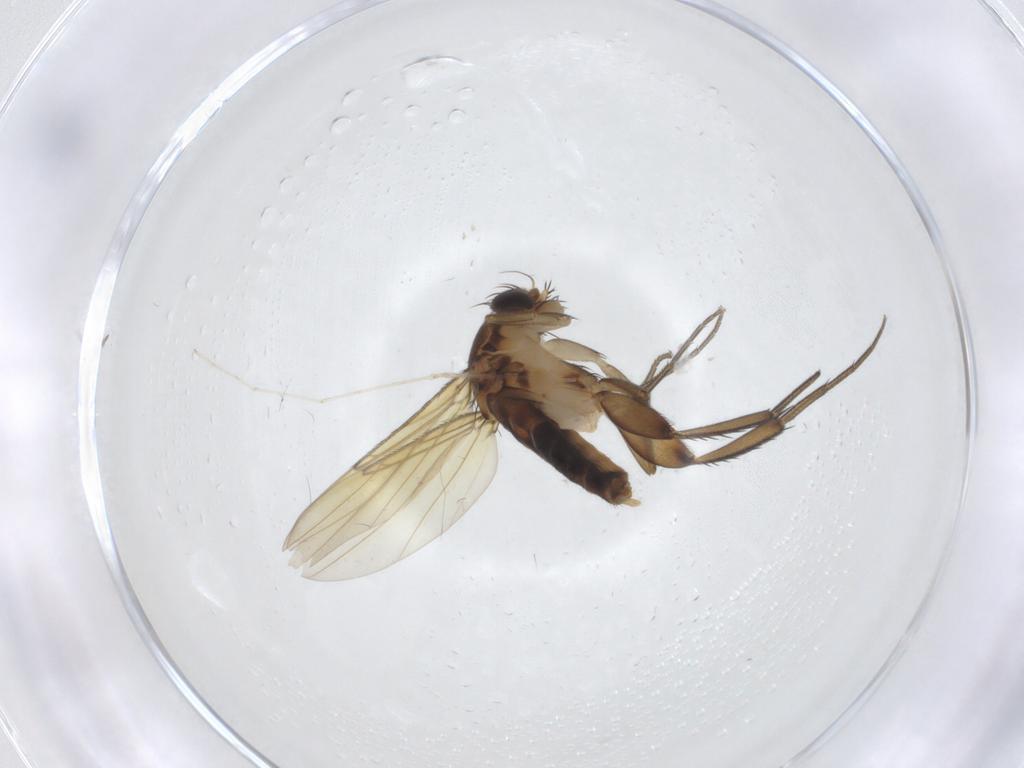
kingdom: Animalia
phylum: Arthropoda
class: Insecta
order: Diptera
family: Phoridae
